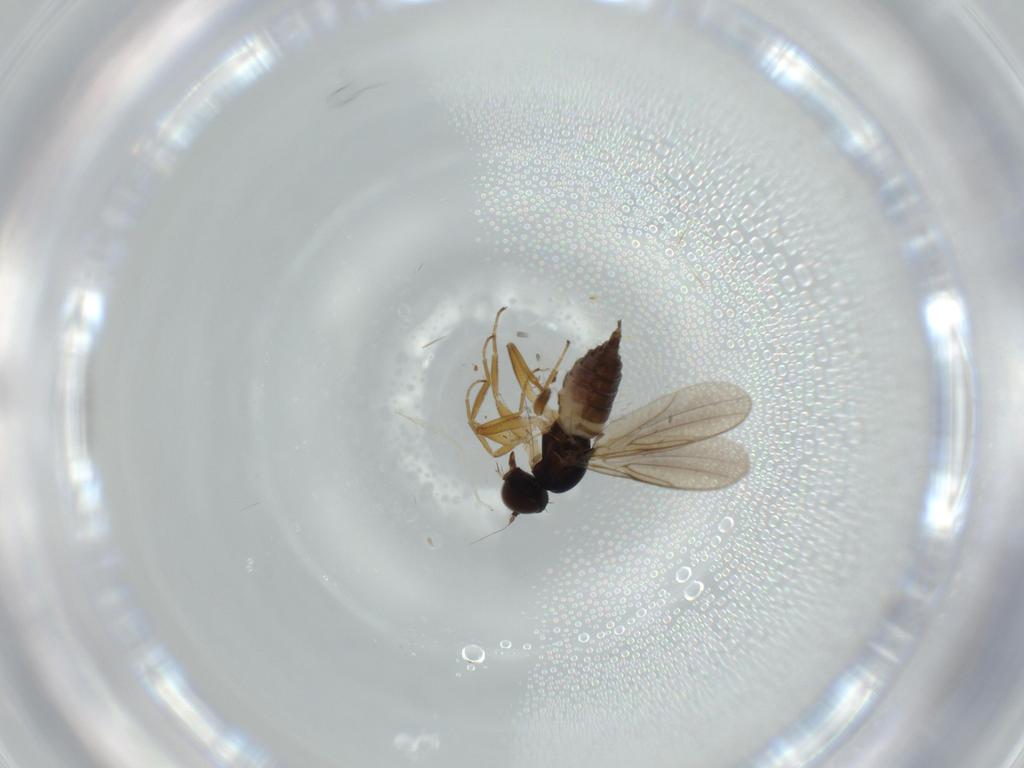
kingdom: Animalia
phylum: Arthropoda
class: Insecta
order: Diptera
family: Hybotidae
